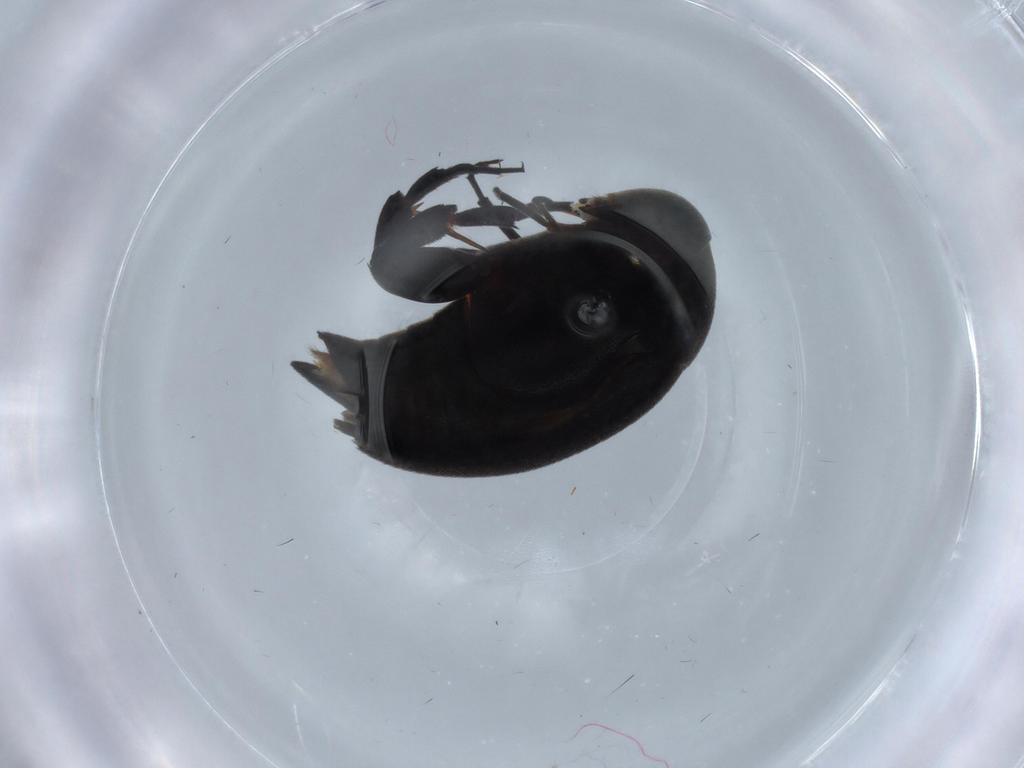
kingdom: Animalia
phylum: Arthropoda
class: Insecta
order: Coleoptera
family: Mordellidae
